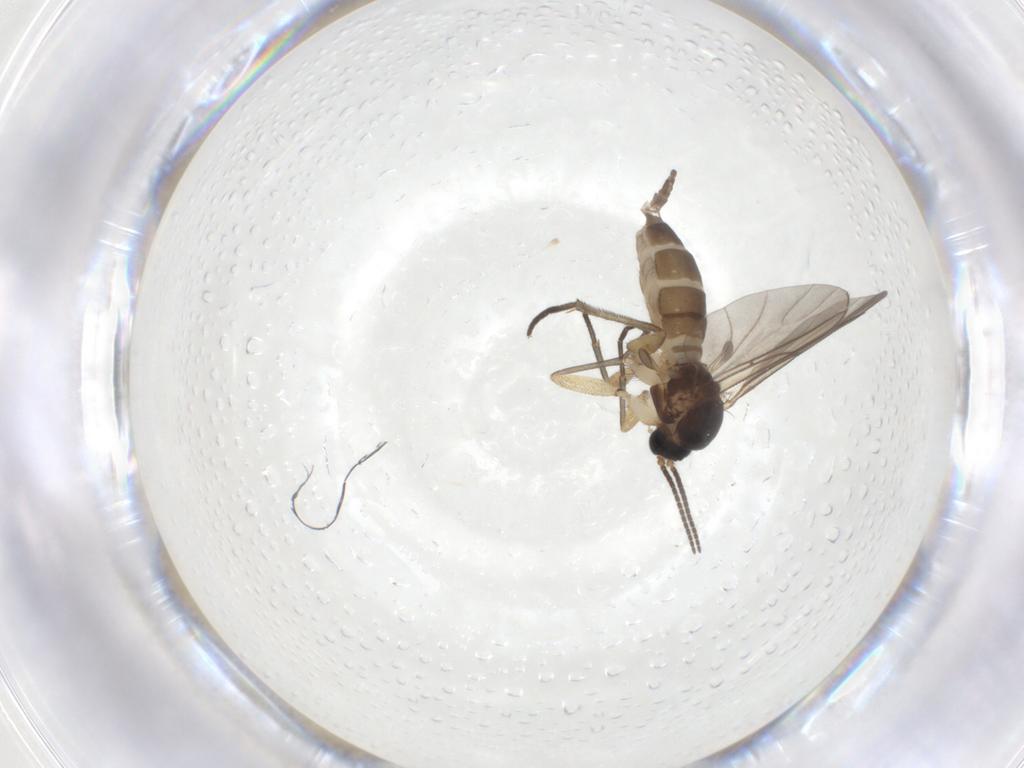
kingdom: Animalia
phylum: Arthropoda
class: Insecta
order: Diptera
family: Sciaridae
